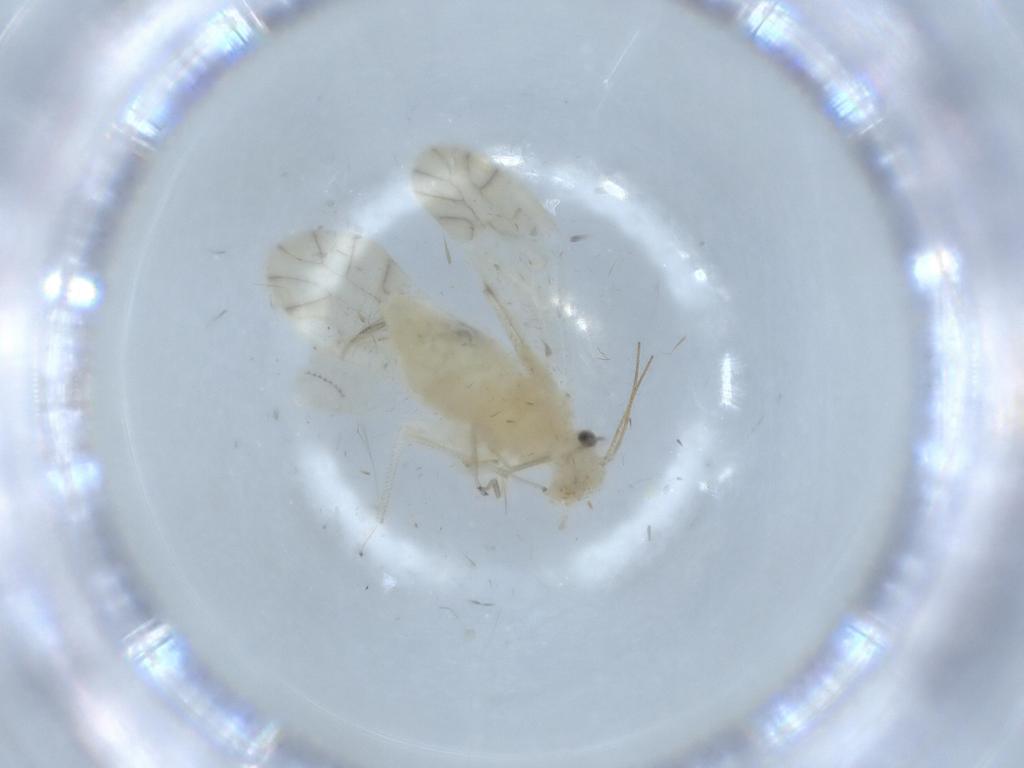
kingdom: Animalia
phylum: Arthropoda
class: Insecta
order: Psocodea
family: Caeciliusidae
